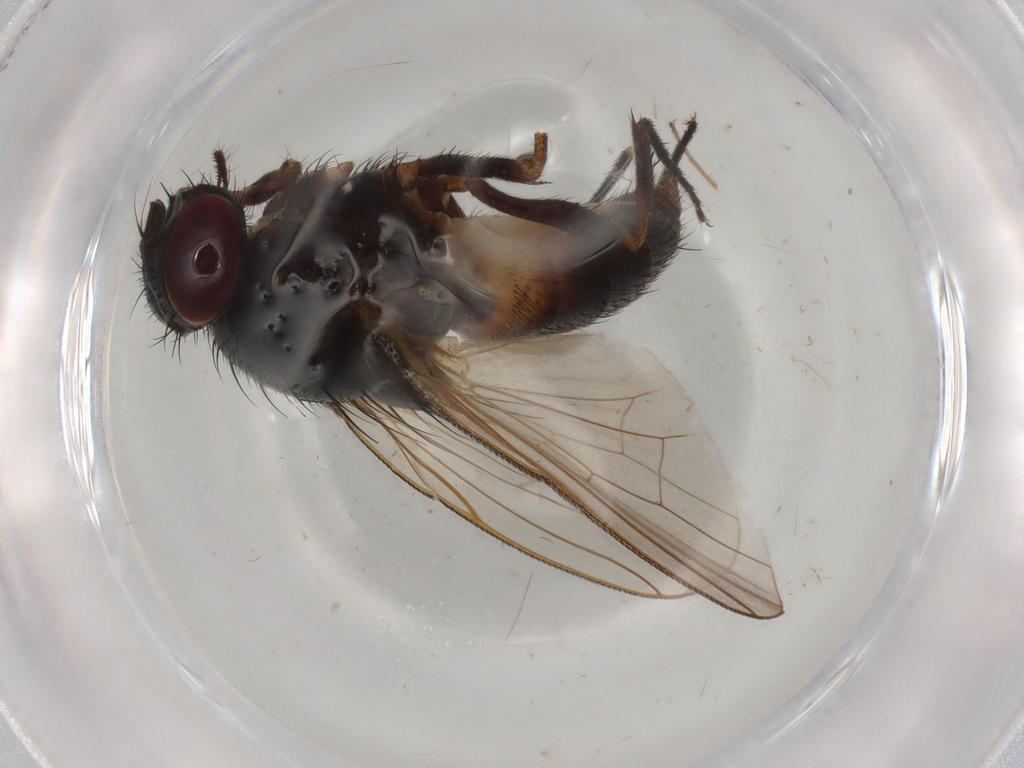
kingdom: Animalia
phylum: Arthropoda
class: Insecta
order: Diptera
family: Fannia
